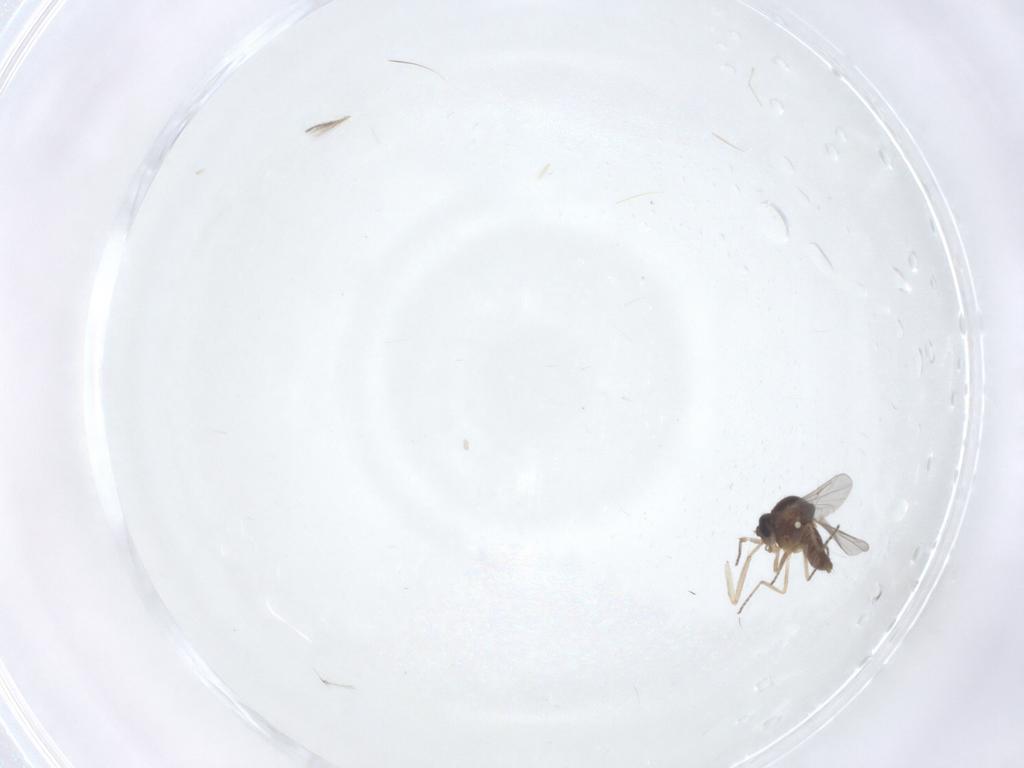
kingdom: Animalia
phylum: Arthropoda
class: Insecta
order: Diptera
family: Ceratopogonidae
